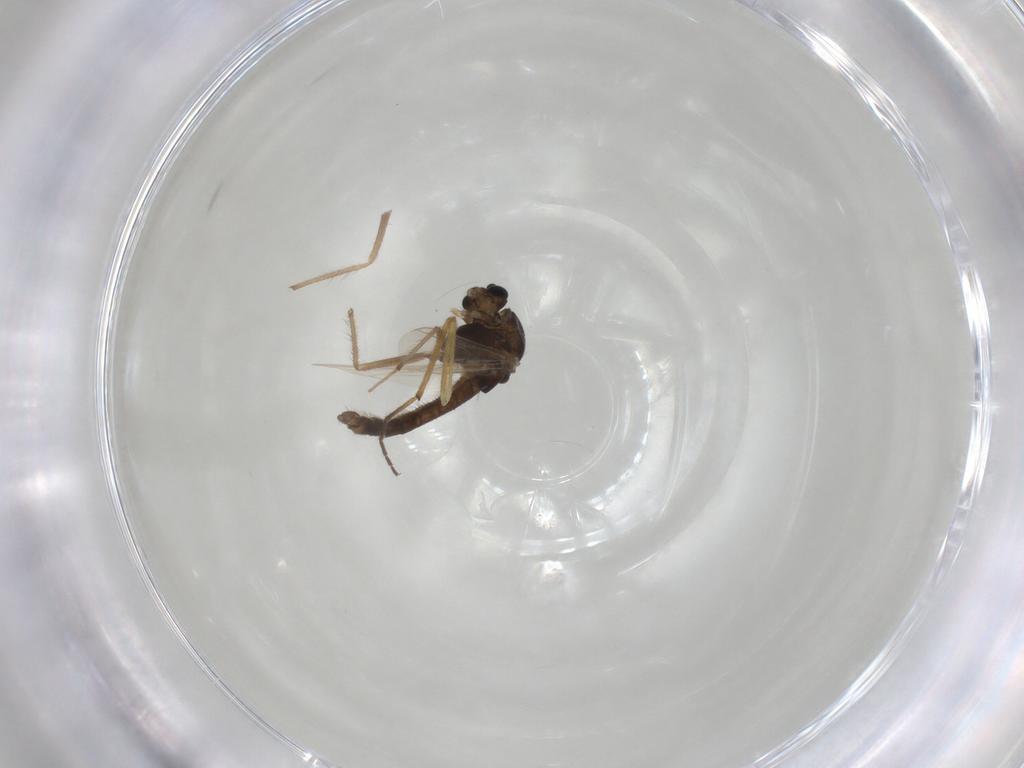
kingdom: Animalia
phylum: Arthropoda
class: Insecta
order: Diptera
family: Chironomidae
